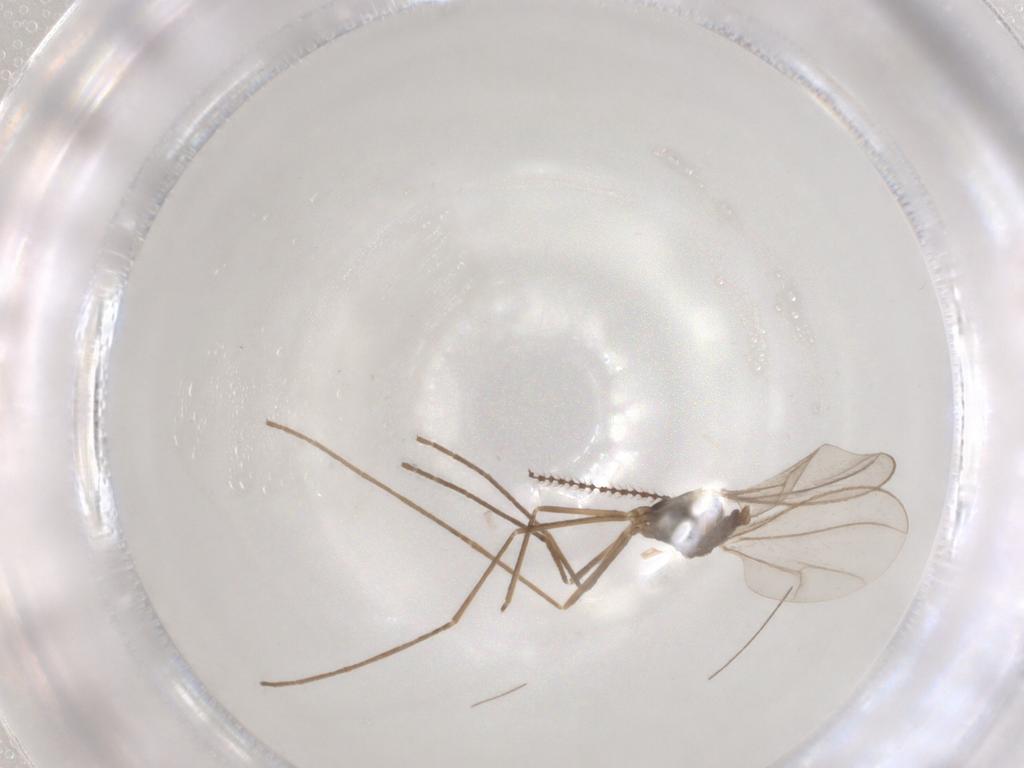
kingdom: Animalia
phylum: Arthropoda
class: Insecta
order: Diptera
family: Cecidomyiidae
